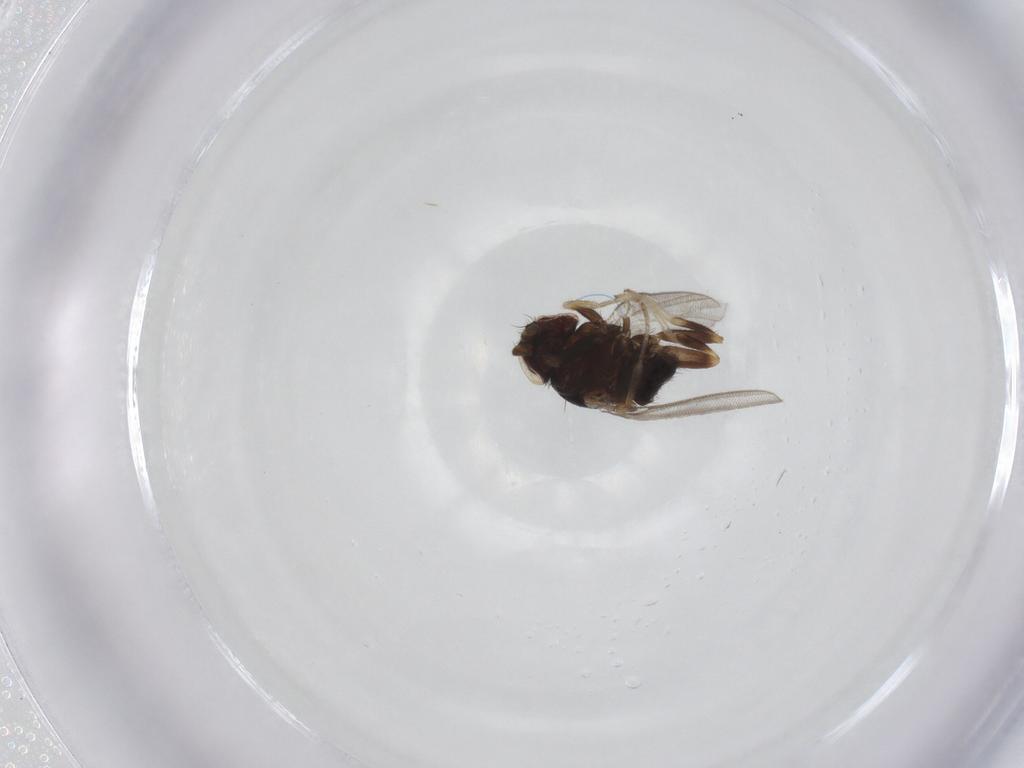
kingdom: Animalia
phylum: Arthropoda
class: Insecta
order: Diptera
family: Milichiidae
